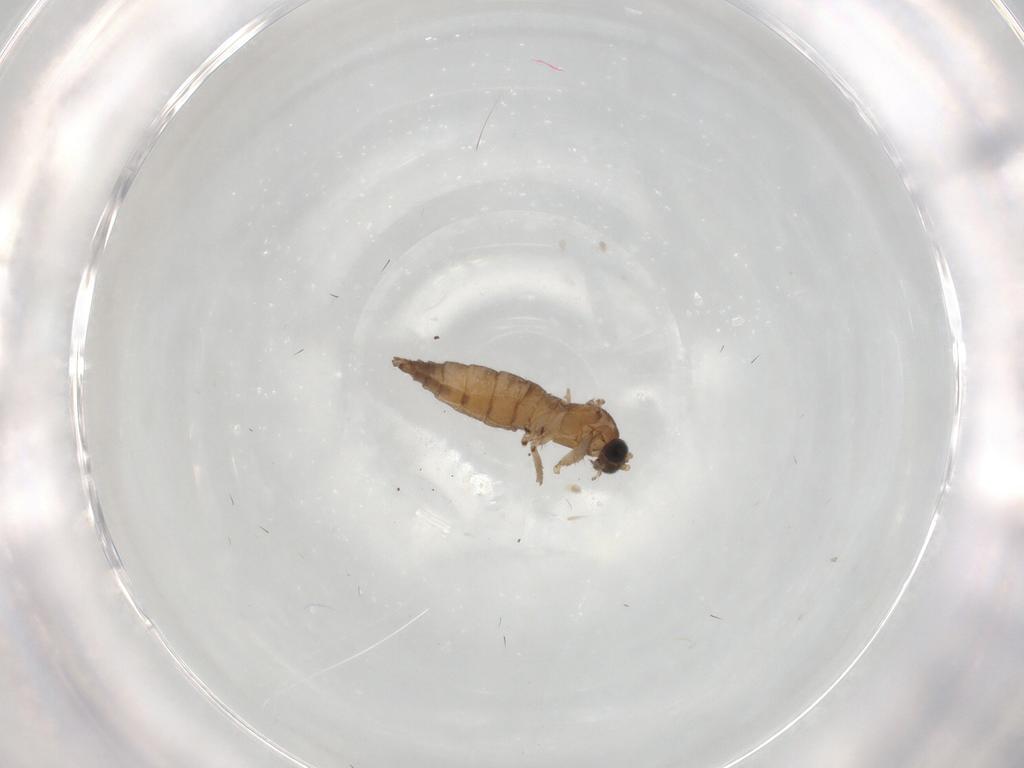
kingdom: Animalia
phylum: Arthropoda
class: Insecta
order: Diptera
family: Sciaridae
